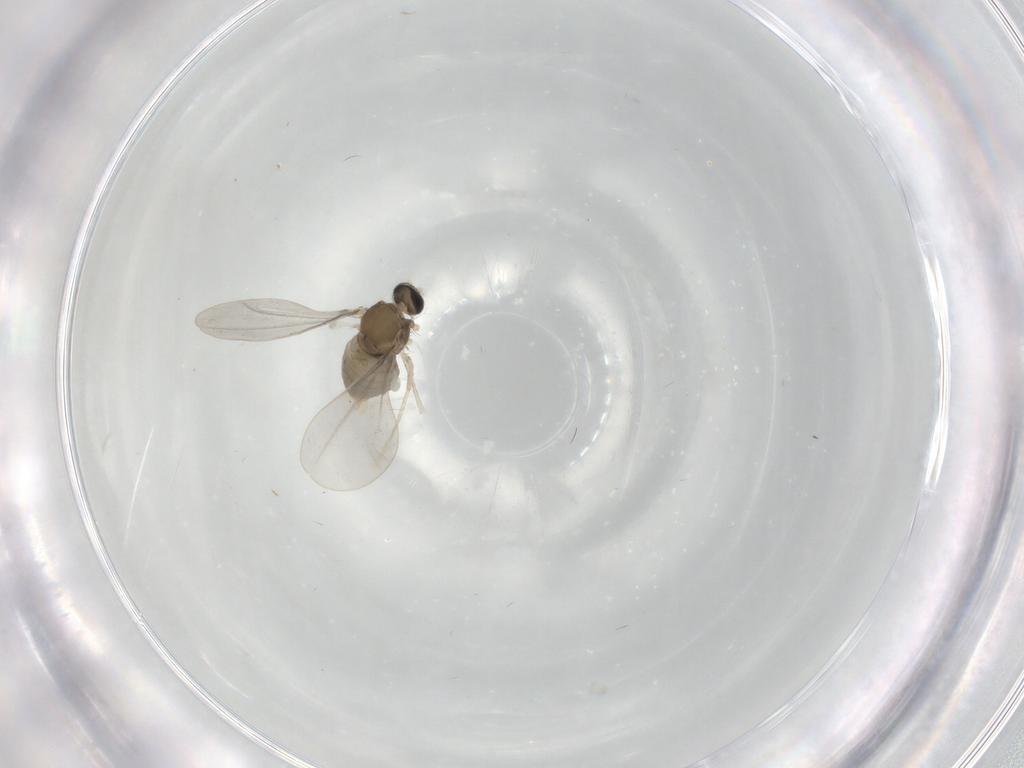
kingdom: Animalia
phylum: Arthropoda
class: Insecta
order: Diptera
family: Cecidomyiidae
